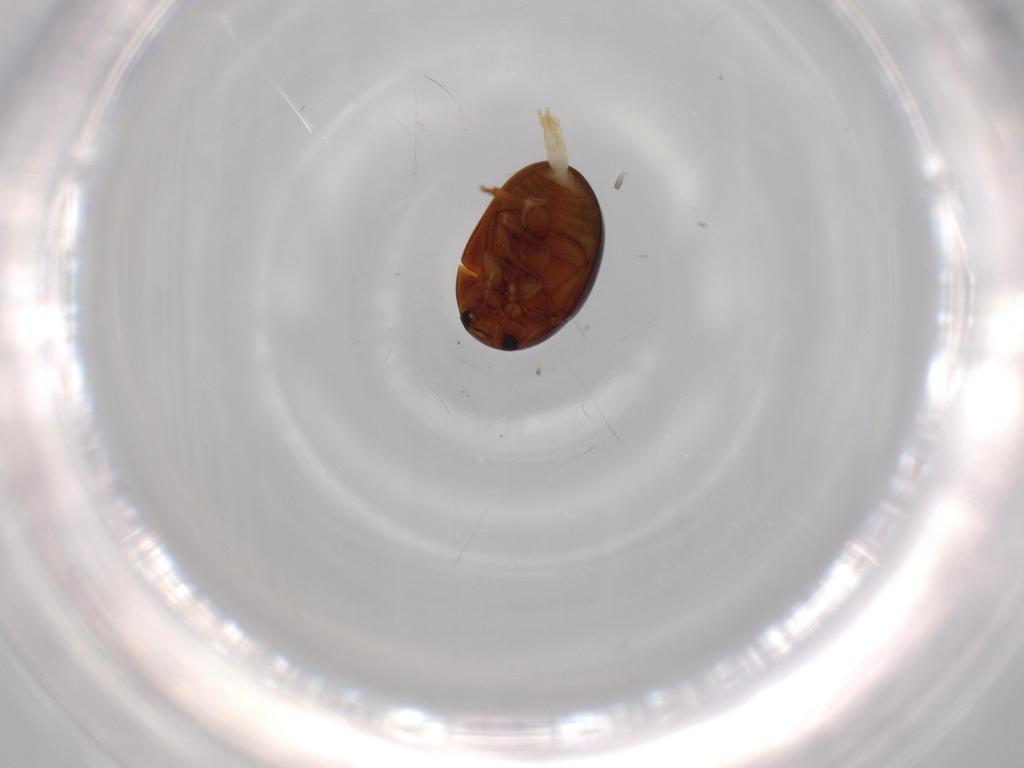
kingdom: Animalia
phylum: Arthropoda
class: Insecta
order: Coleoptera
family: Phalacridae
